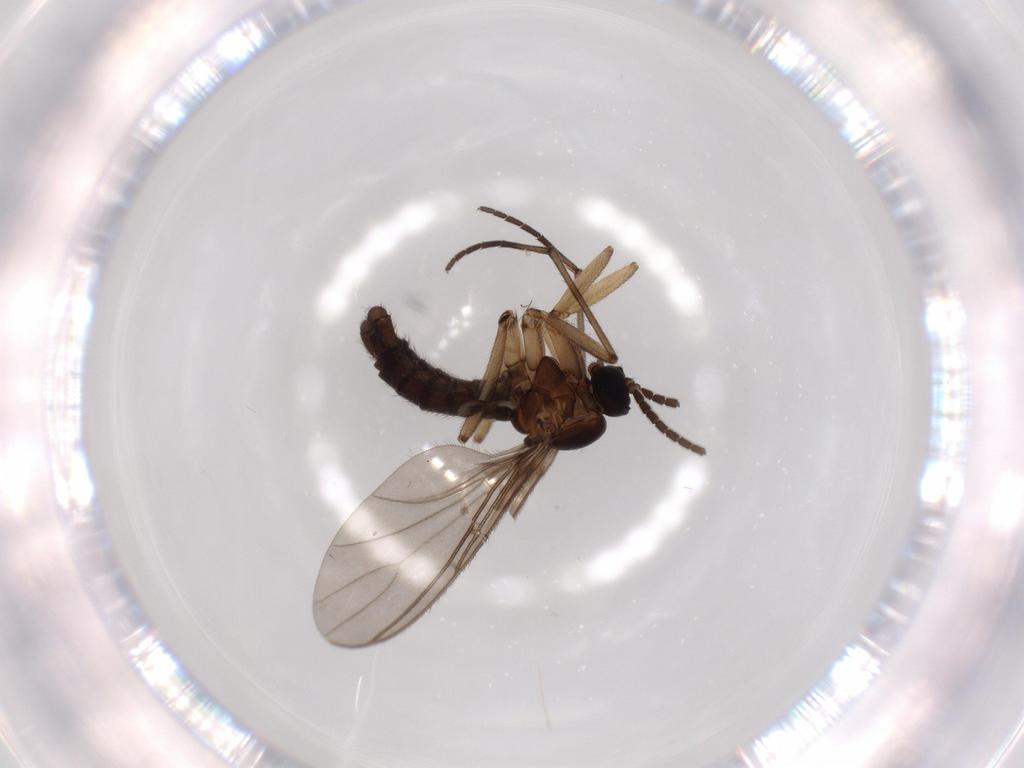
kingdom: Animalia
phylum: Arthropoda
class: Insecta
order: Diptera
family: Sciaridae
